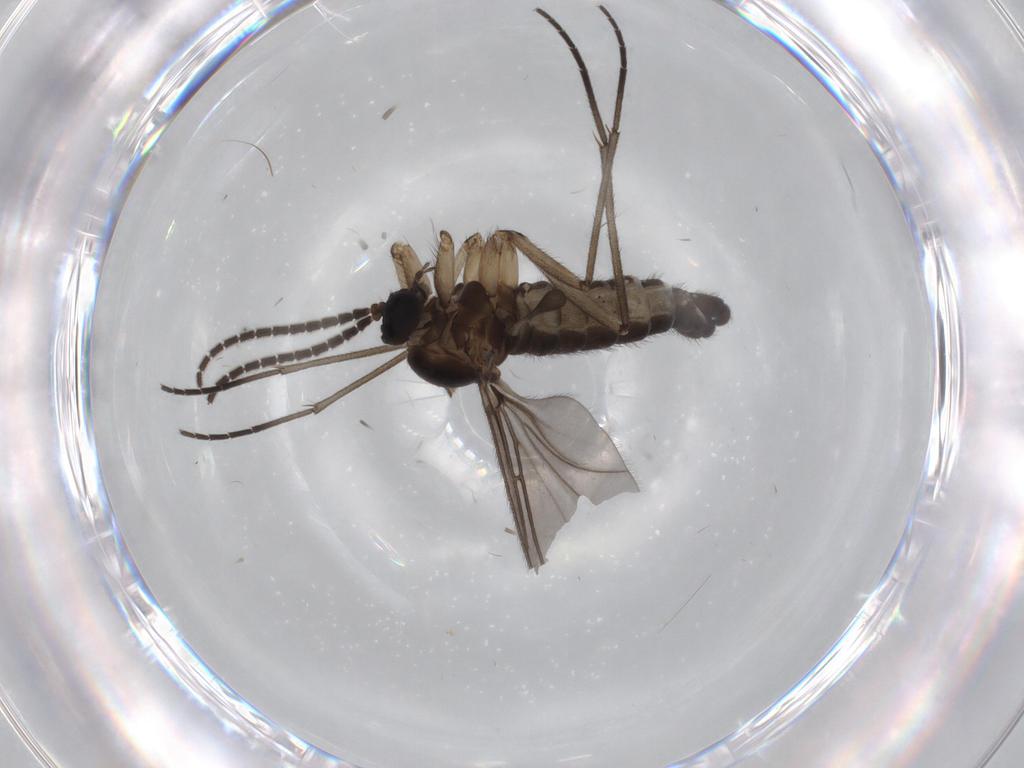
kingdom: Animalia
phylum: Arthropoda
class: Insecta
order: Diptera
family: Sciaridae
